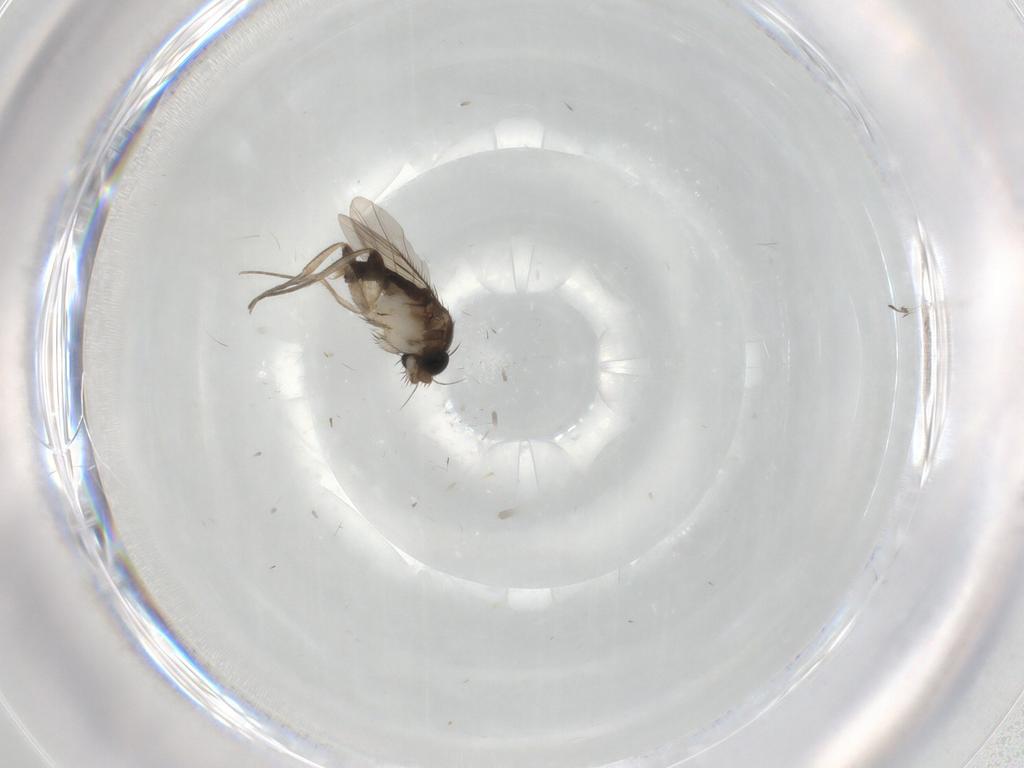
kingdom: Animalia
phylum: Arthropoda
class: Insecta
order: Diptera
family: Phoridae
